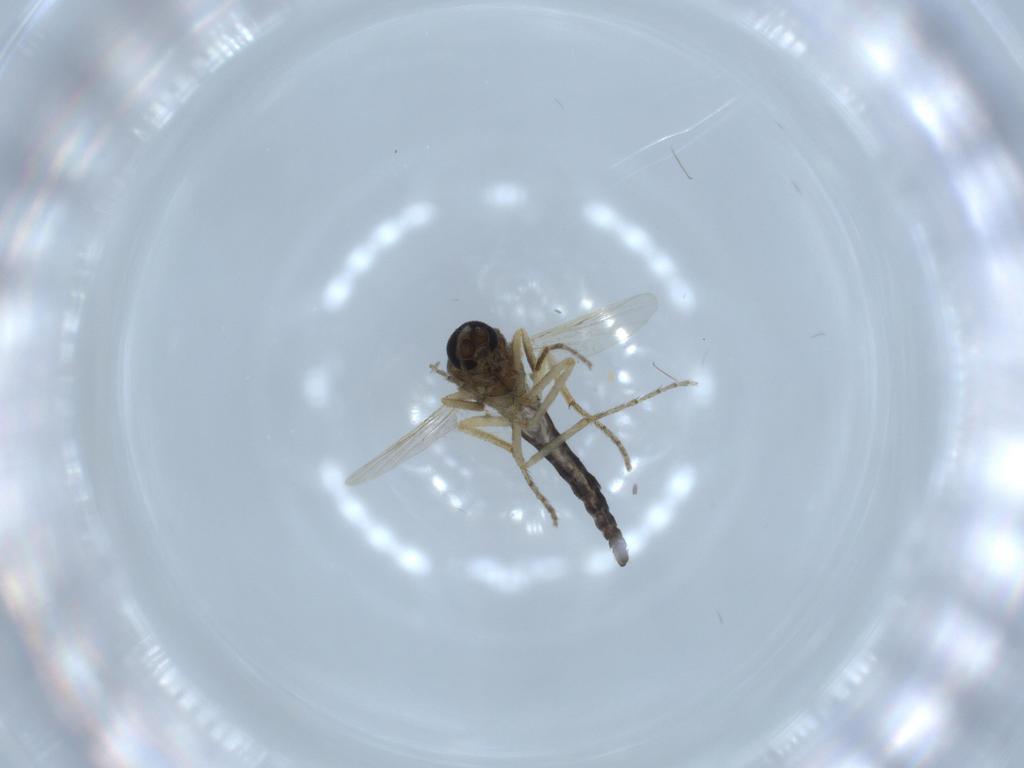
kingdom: Animalia
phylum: Arthropoda
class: Insecta
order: Diptera
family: Ceratopogonidae
